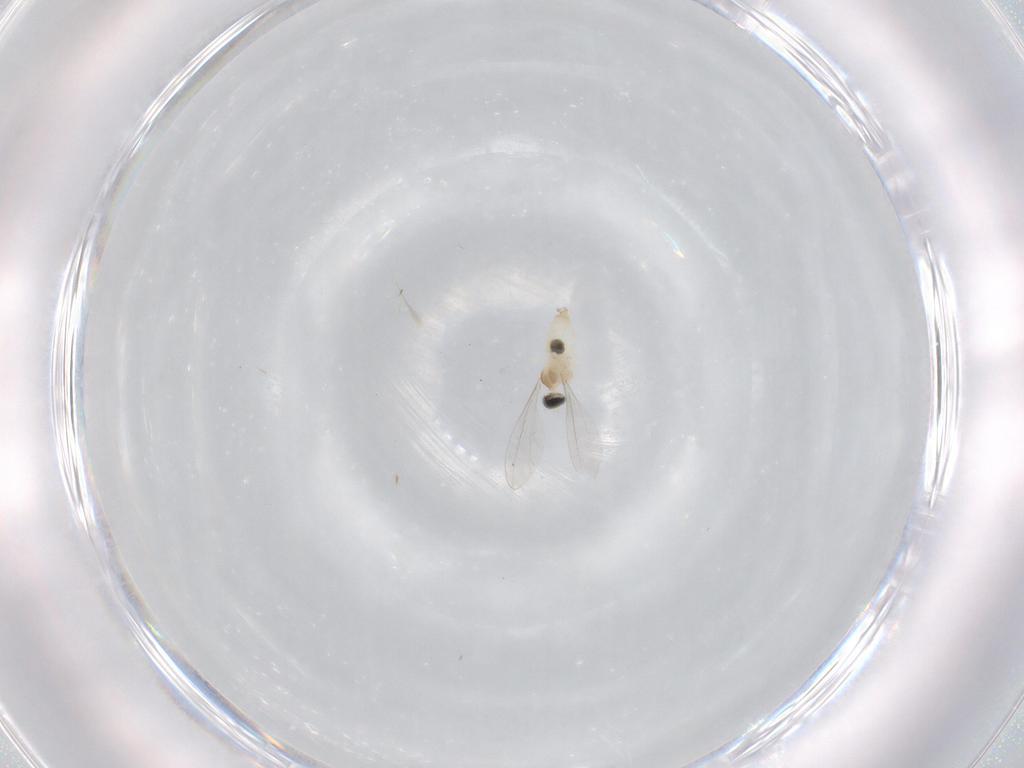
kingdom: Animalia
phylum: Arthropoda
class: Insecta
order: Diptera
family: Cecidomyiidae
